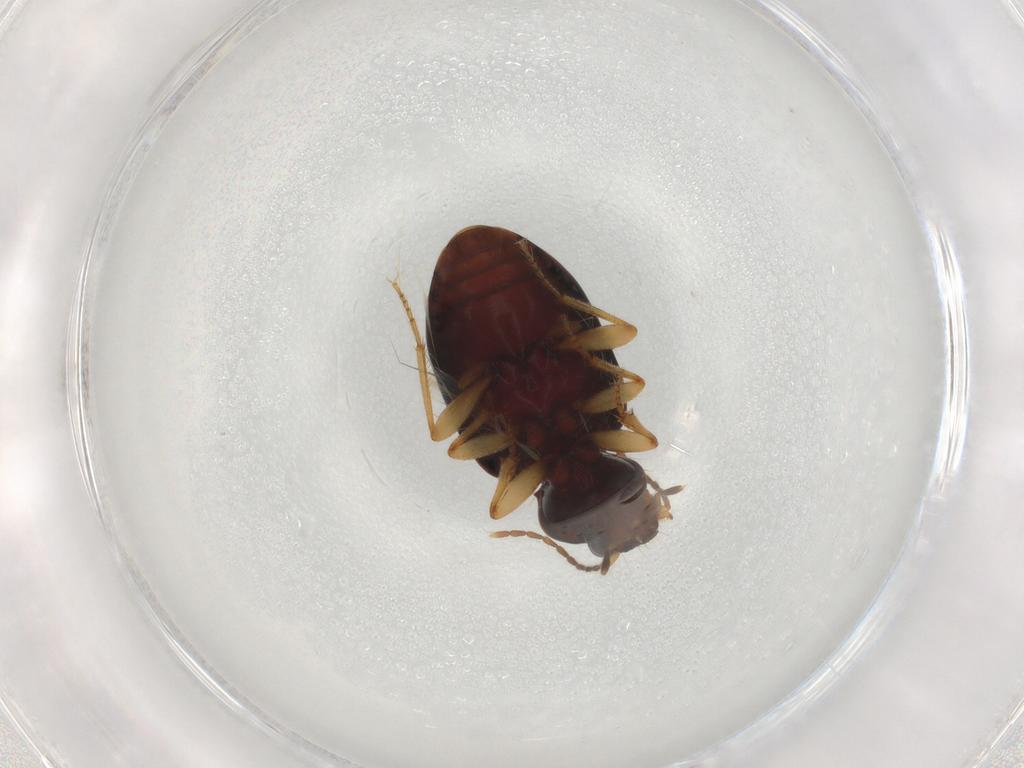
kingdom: Animalia
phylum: Arthropoda
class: Insecta
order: Coleoptera
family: Carabidae
